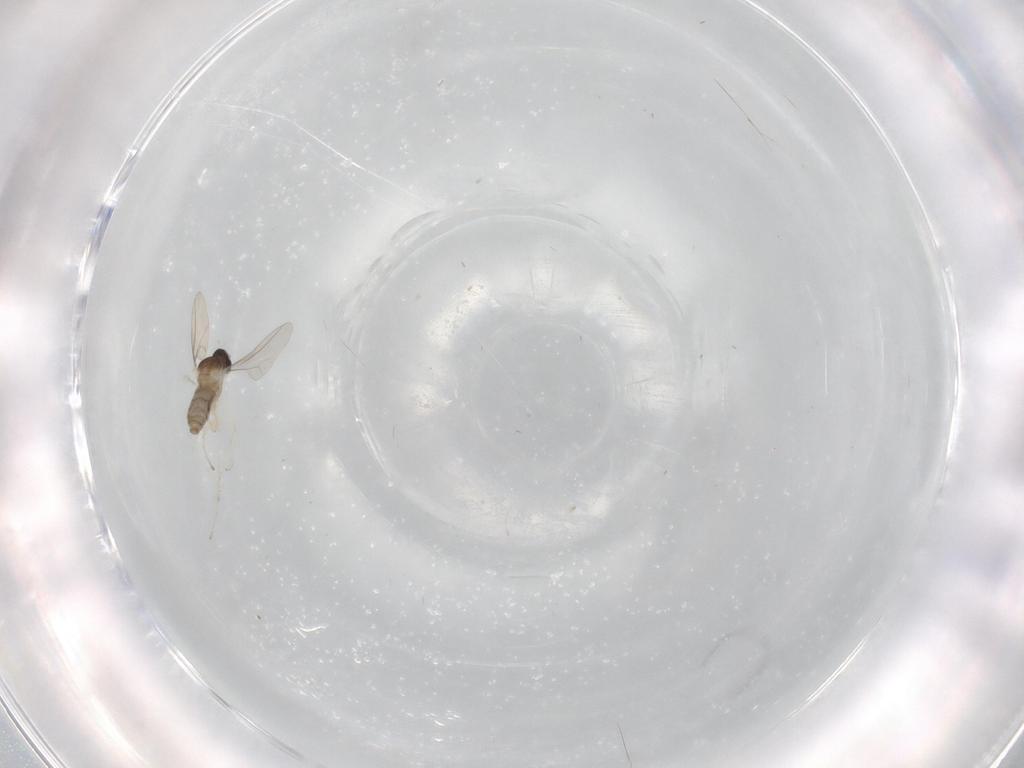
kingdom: Animalia
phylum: Arthropoda
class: Insecta
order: Diptera
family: Cecidomyiidae
